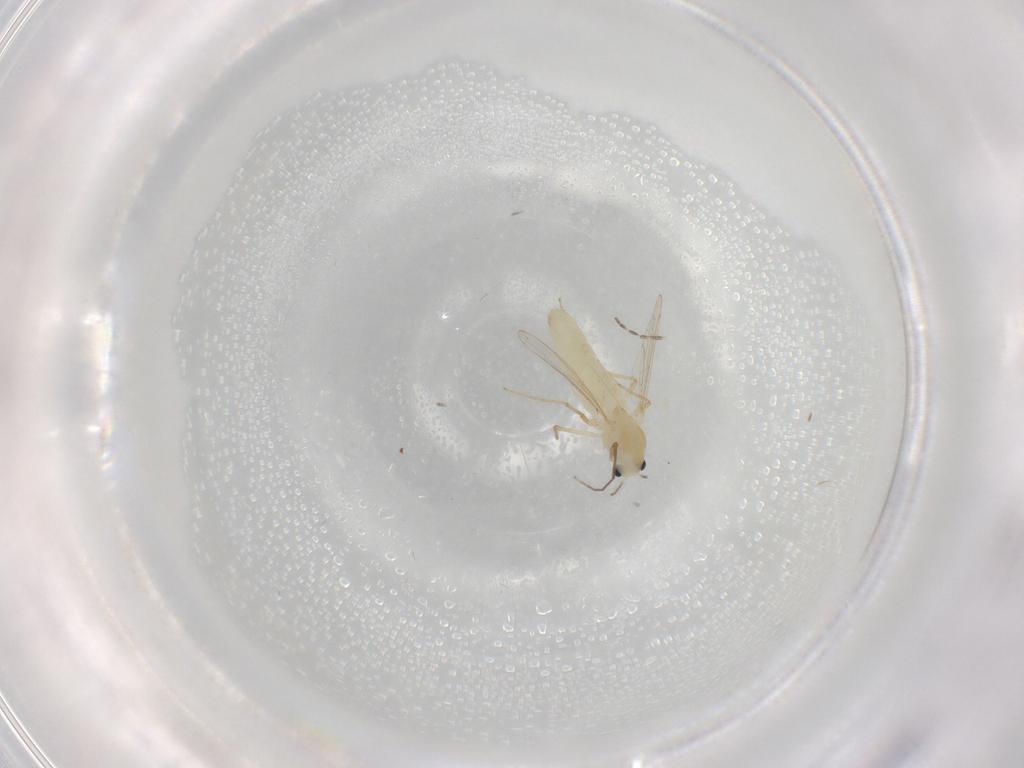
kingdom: Animalia
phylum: Arthropoda
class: Insecta
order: Diptera
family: Chironomidae
